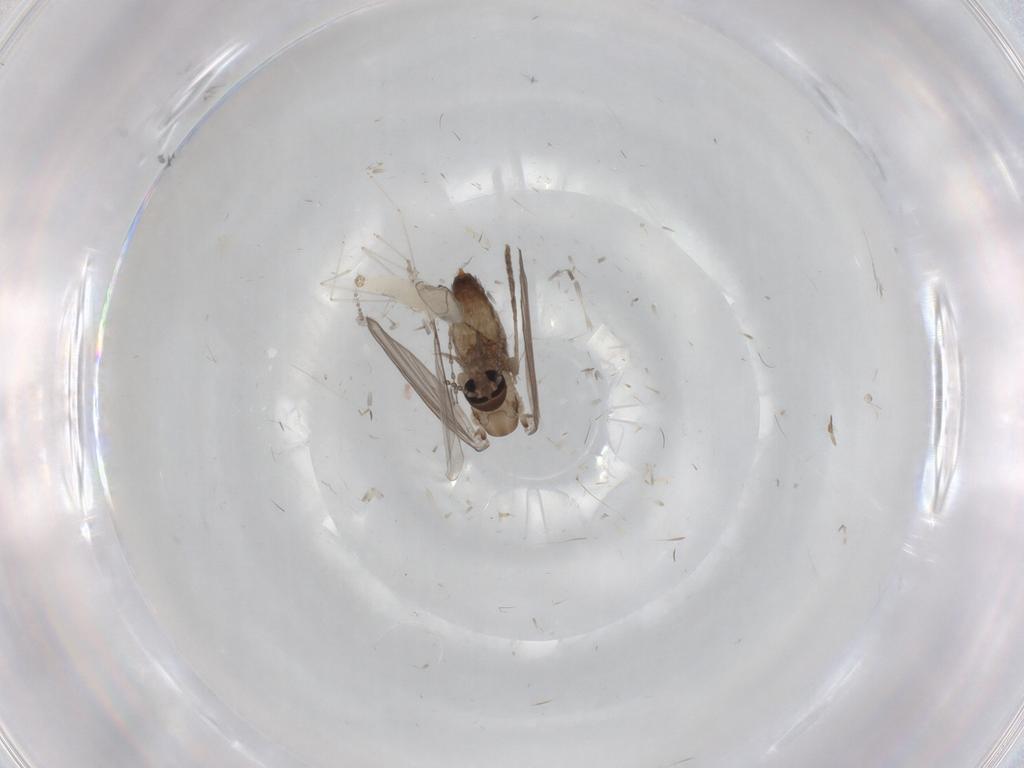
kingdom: Animalia
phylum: Arthropoda
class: Insecta
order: Diptera
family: Psychodidae
